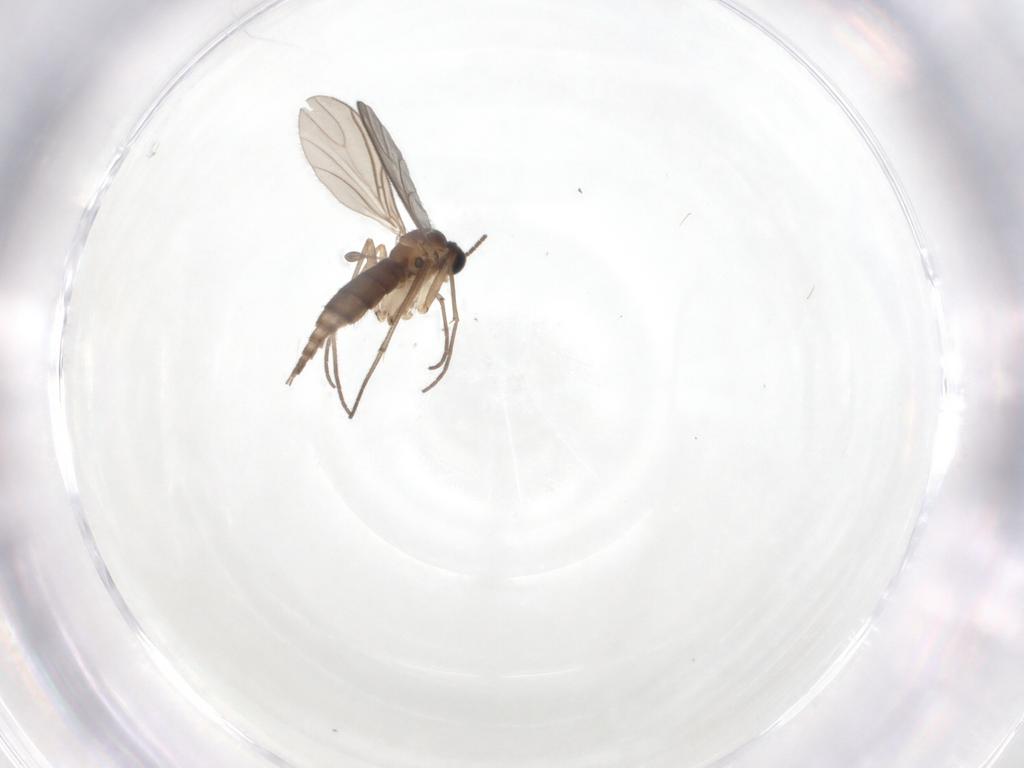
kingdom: Animalia
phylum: Arthropoda
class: Insecta
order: Diptera
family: Sciaridae
